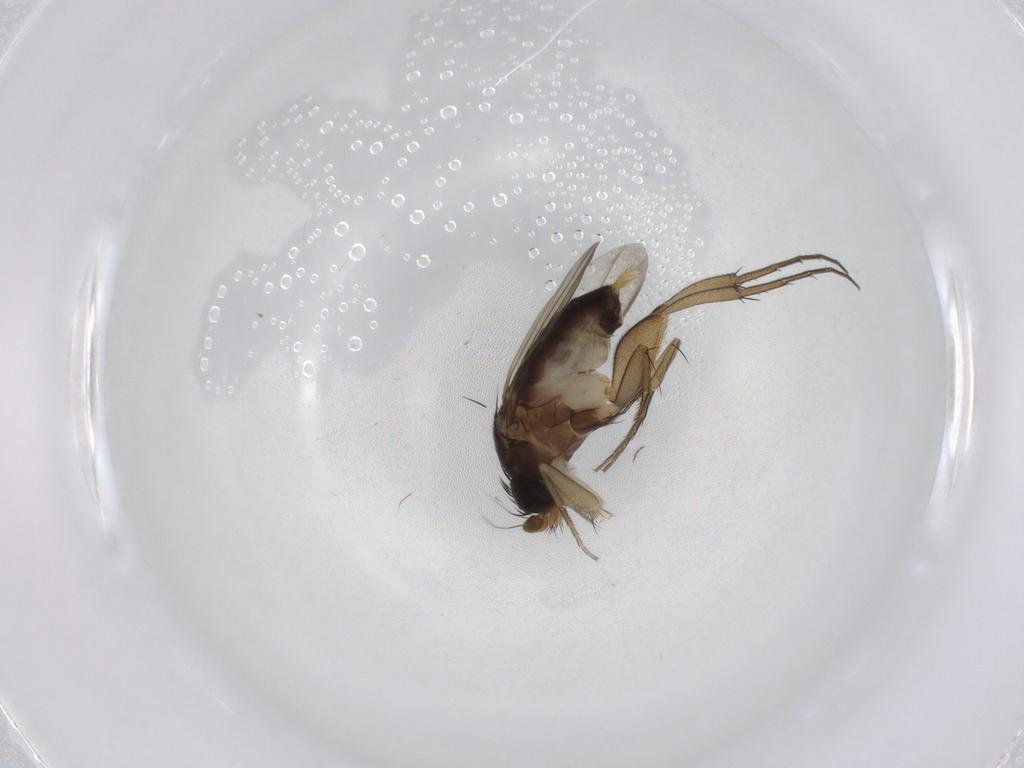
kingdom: Animalia
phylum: Arthropoda
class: Insecta
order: Diptera
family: Phoridae
